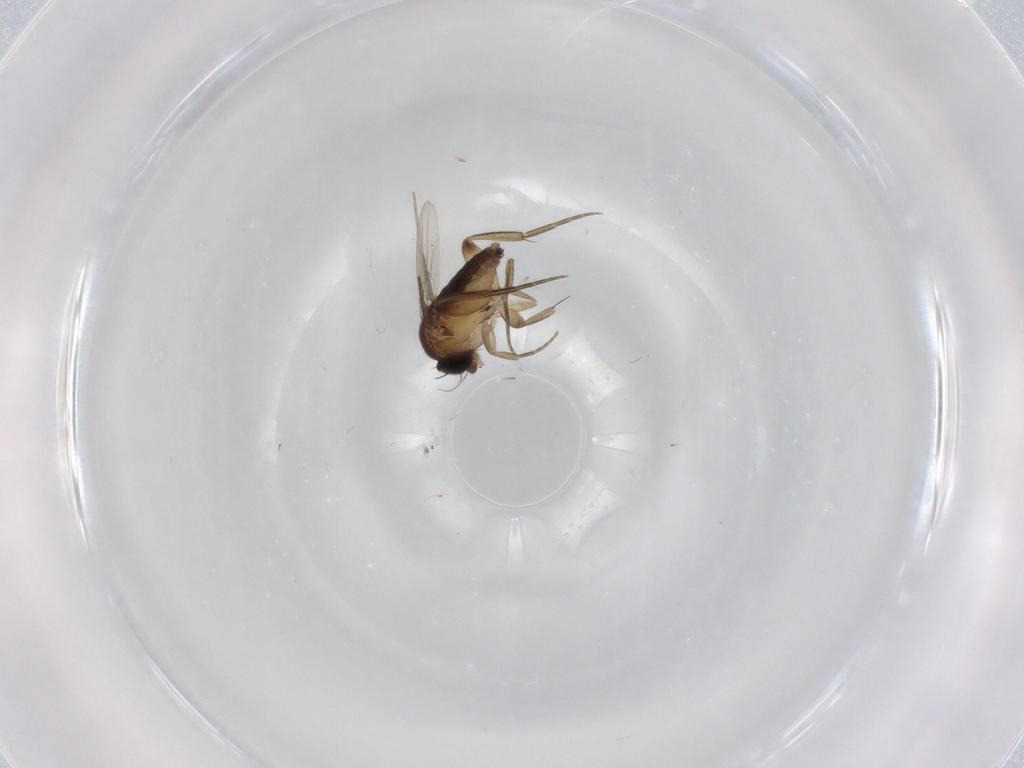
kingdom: Animalia
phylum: Arthropoda
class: Insecta
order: Diptera
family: Phoridae
